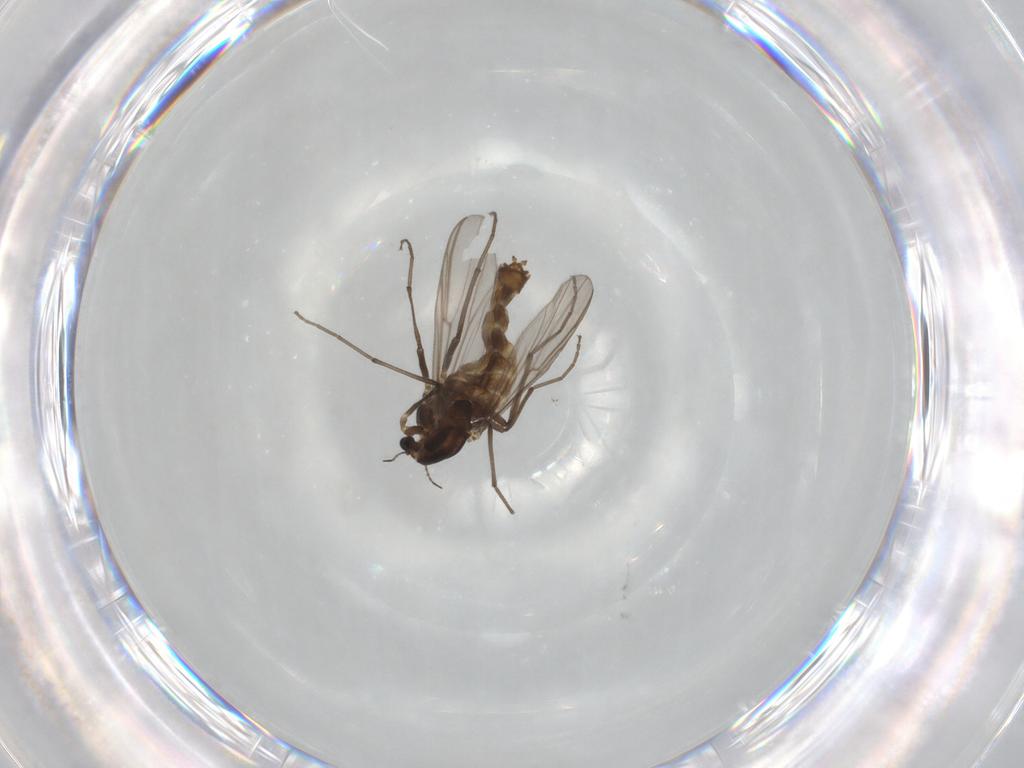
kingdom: Animalia
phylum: Arthropoda
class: Insecta
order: Diptera
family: Chironomidae
